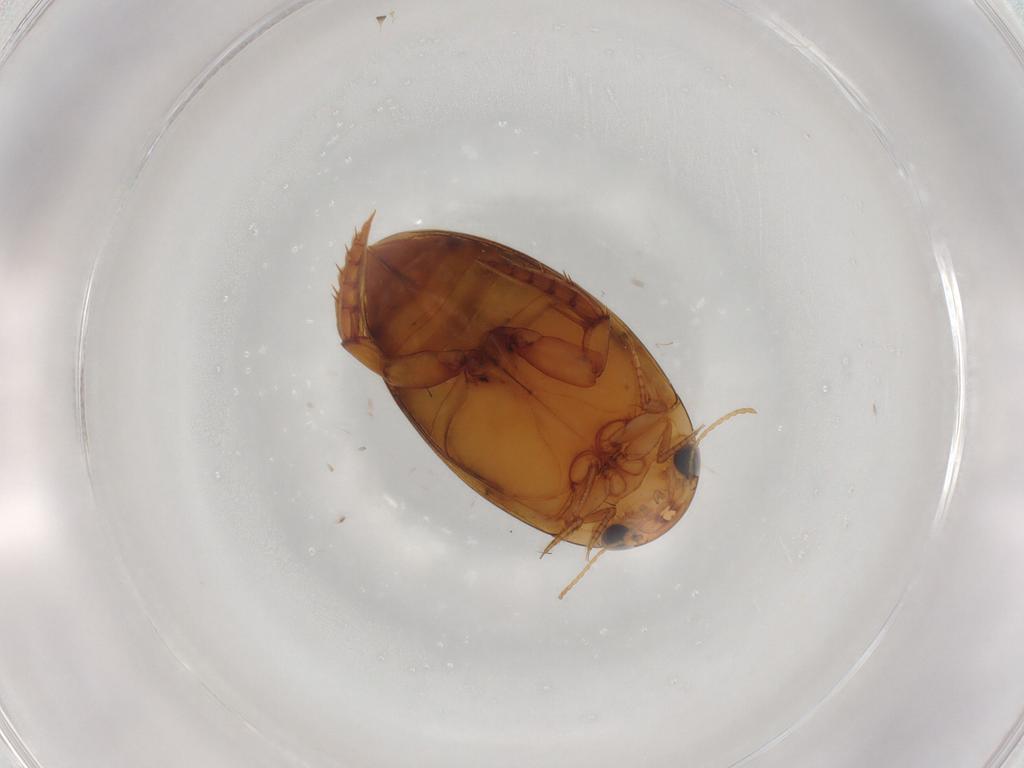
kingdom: Animalia
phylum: Arthropoda
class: Insecta
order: Coleoptera
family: Dytiscidae
